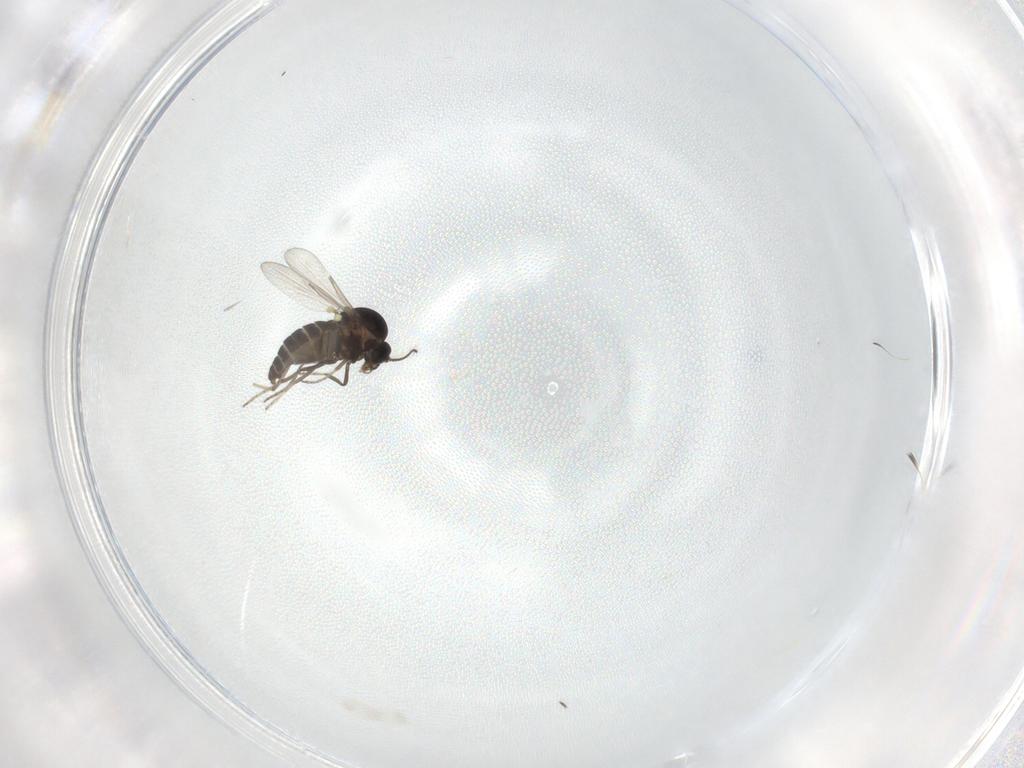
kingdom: Animalia
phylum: Arthropoda
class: Insecta
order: Diptera
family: Ceratopogonidae
